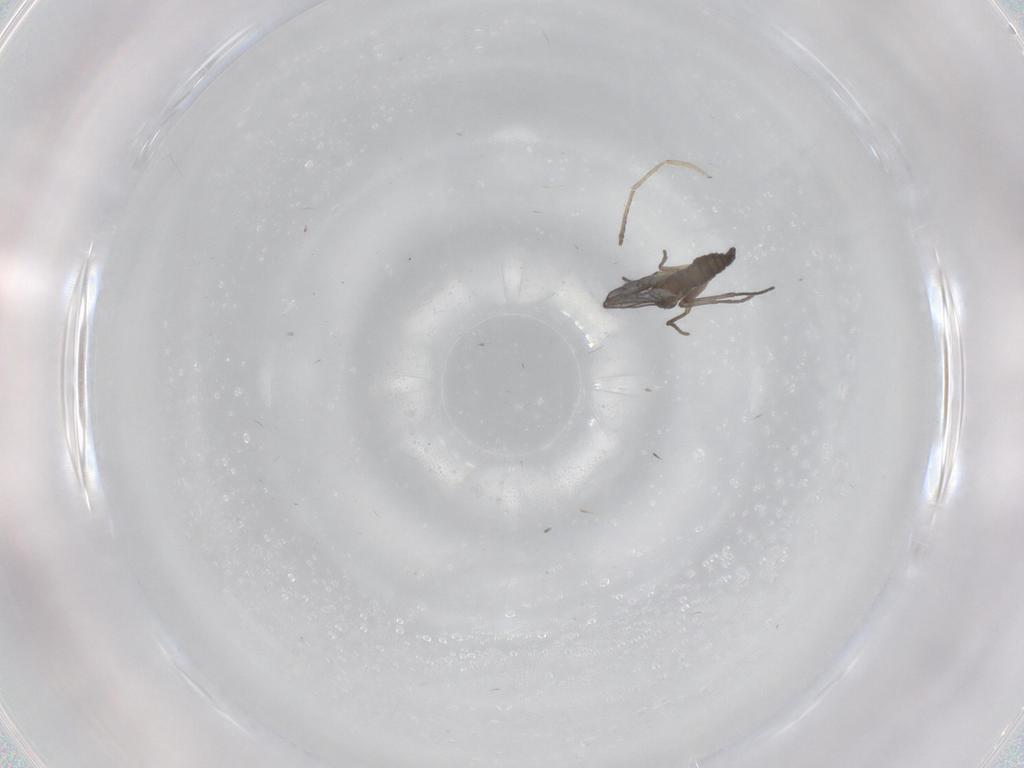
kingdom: Animalia
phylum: Arthropoda
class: Insecta
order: Diptera
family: Psychodidae
